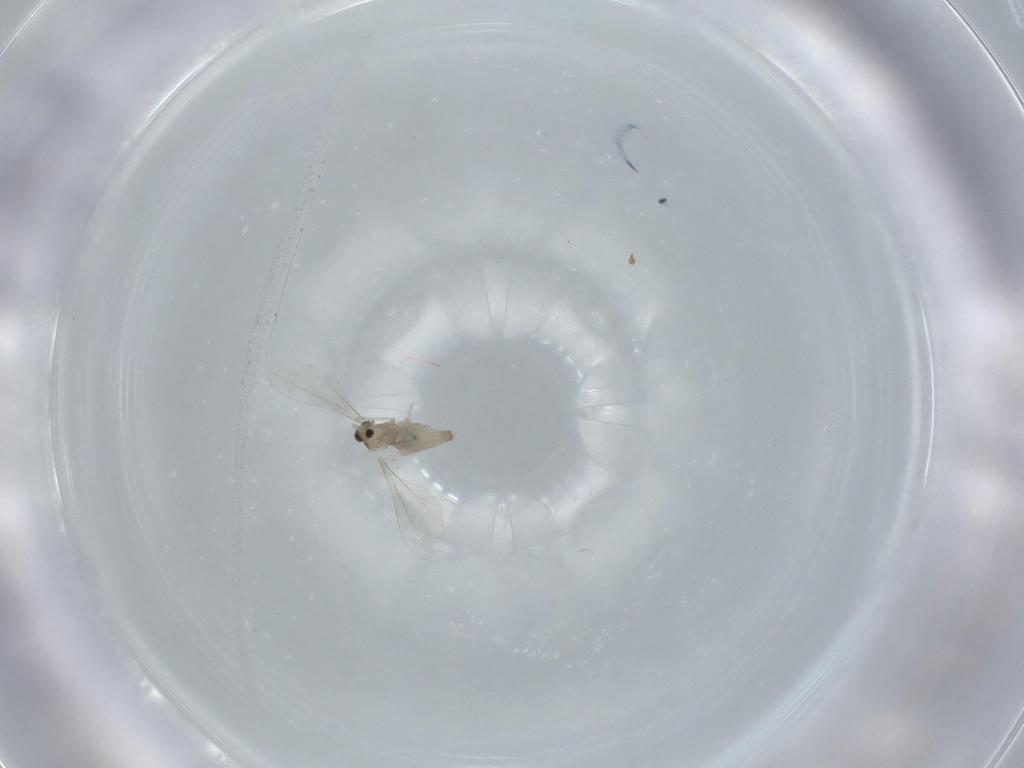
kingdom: Animalia
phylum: Arthropoda
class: Insecta
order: Diptera
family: Cecidomyiidae
